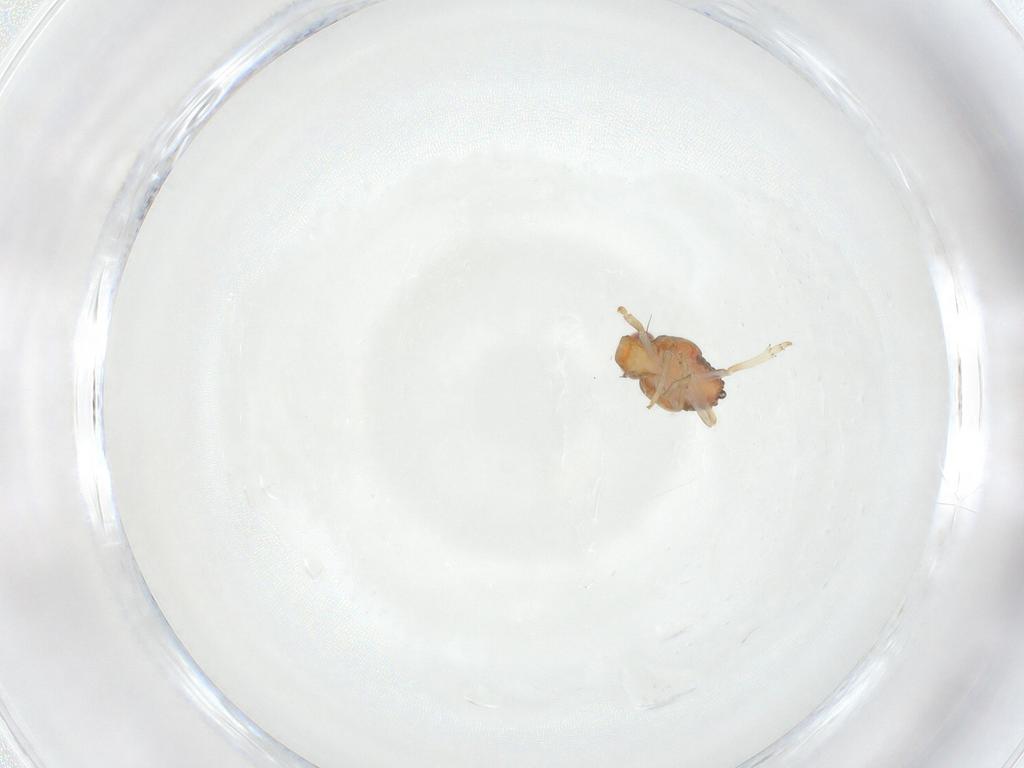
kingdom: Animalia
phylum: Arthropoda
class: Insecta
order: Hemiptera
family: Issidae
